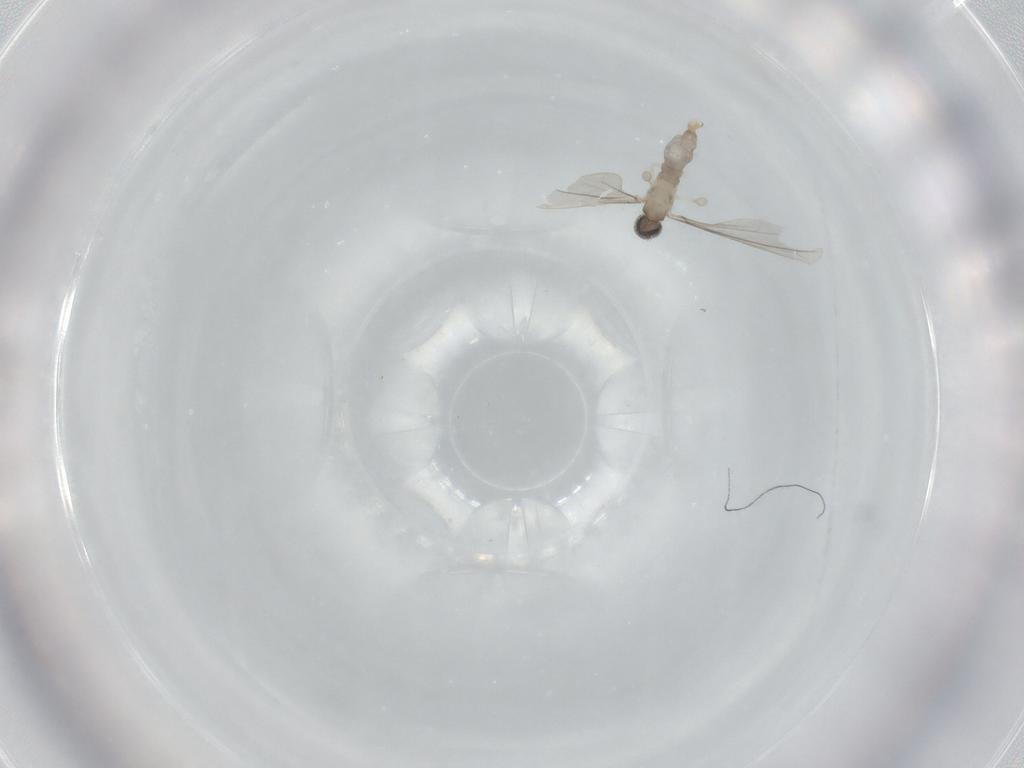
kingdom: Animalia
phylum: Arthropoda
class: Insecta
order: Diptera
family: Cecidomyiidae
